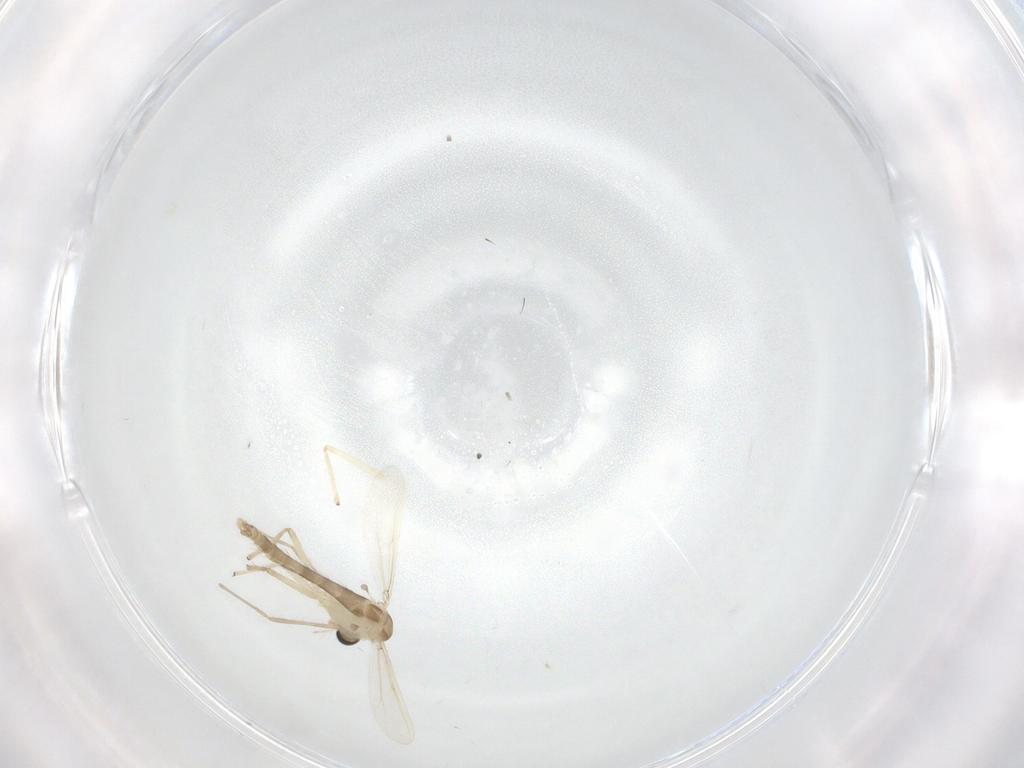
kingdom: Animalia
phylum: Arthropoda
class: Insecta
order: Diptera
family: Chironomidae
